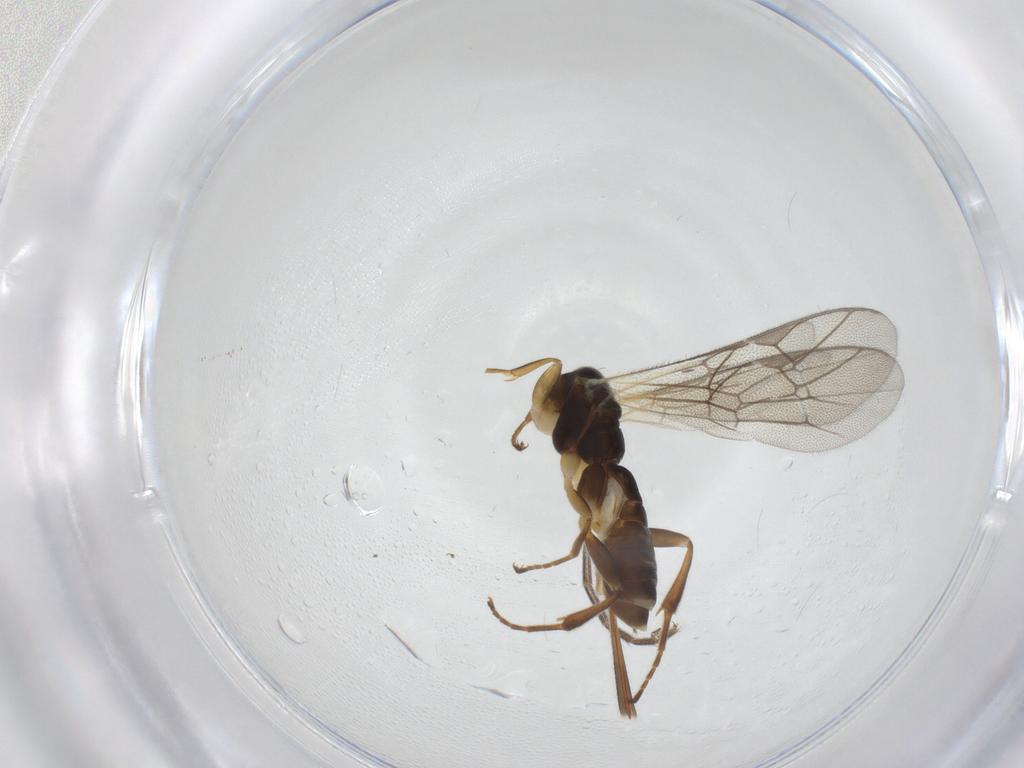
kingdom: Animalia
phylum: Arthropoda
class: Insecta
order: Hymenoptera
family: Ichneumonidae
